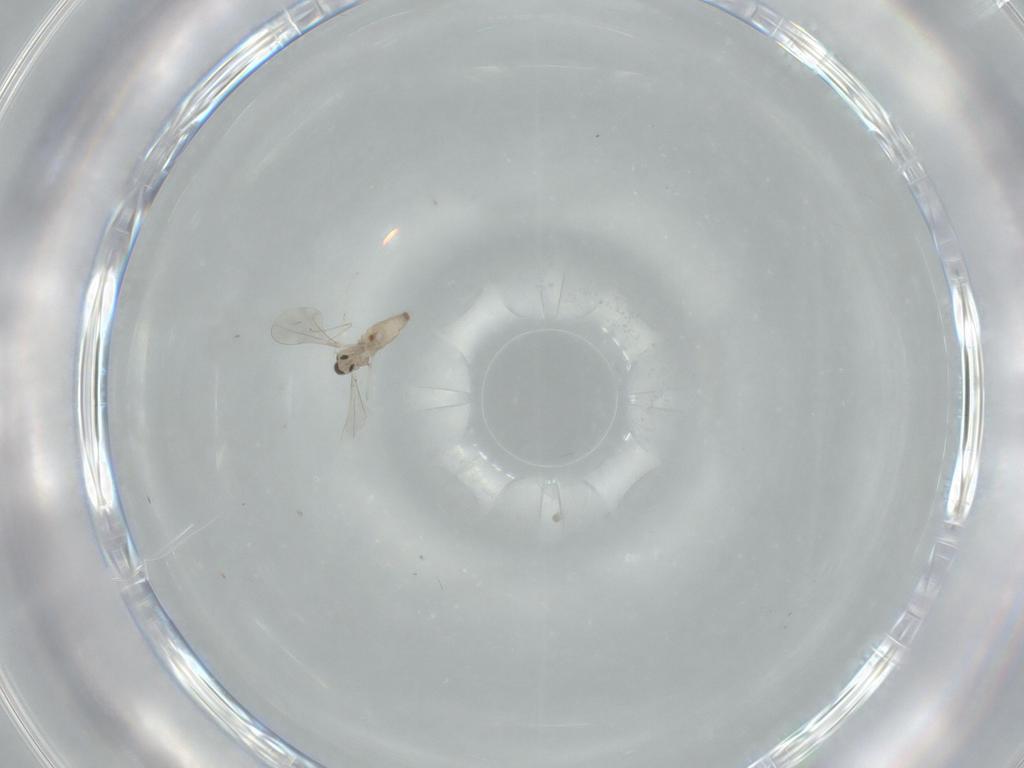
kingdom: Animalia
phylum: Arthropoda
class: Insecta
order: Diptera
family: Cecidomyiidae
